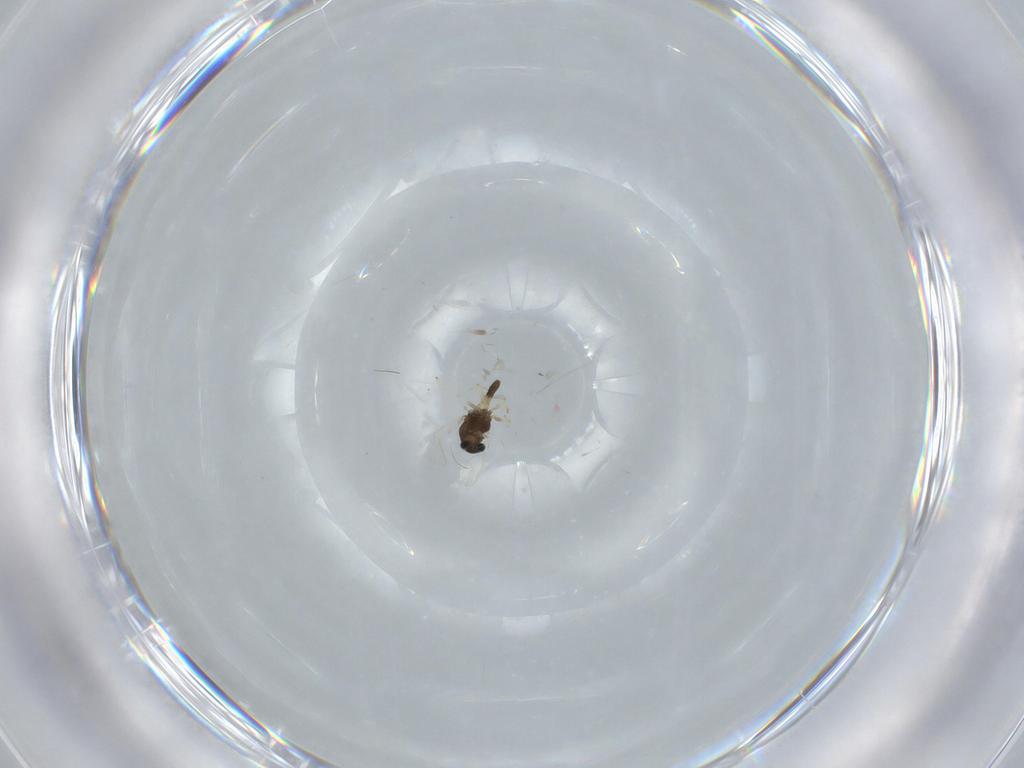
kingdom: Animalia
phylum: Arthropoda
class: Insecta
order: Diptera
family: Chironomidae
